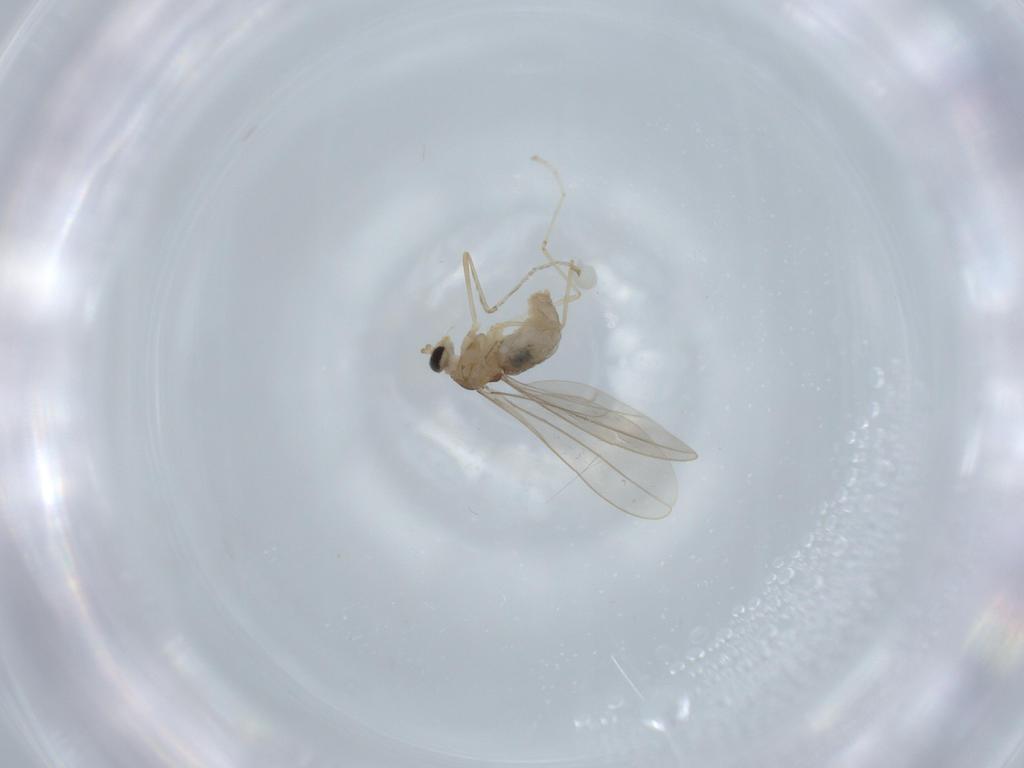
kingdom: Animalia
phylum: Arthropoda
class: Insecta
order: Diptera
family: Cecidomyiidae
